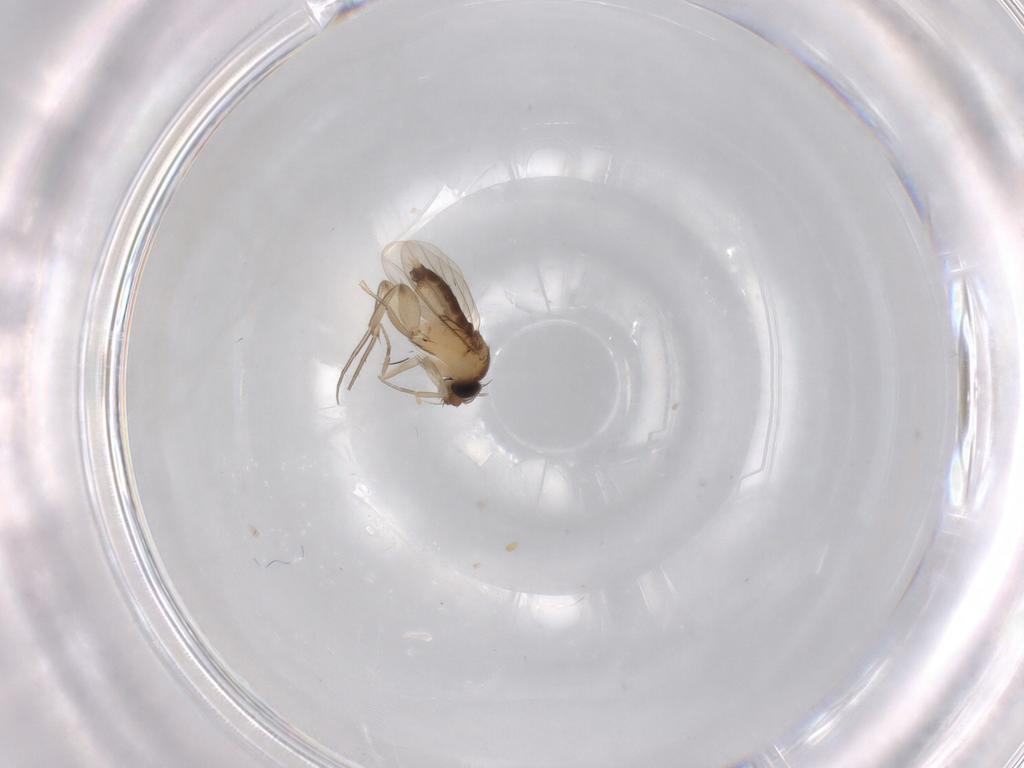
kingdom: Animalia
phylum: Arthropoda
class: Insecta
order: Diptera
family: Phoridae
